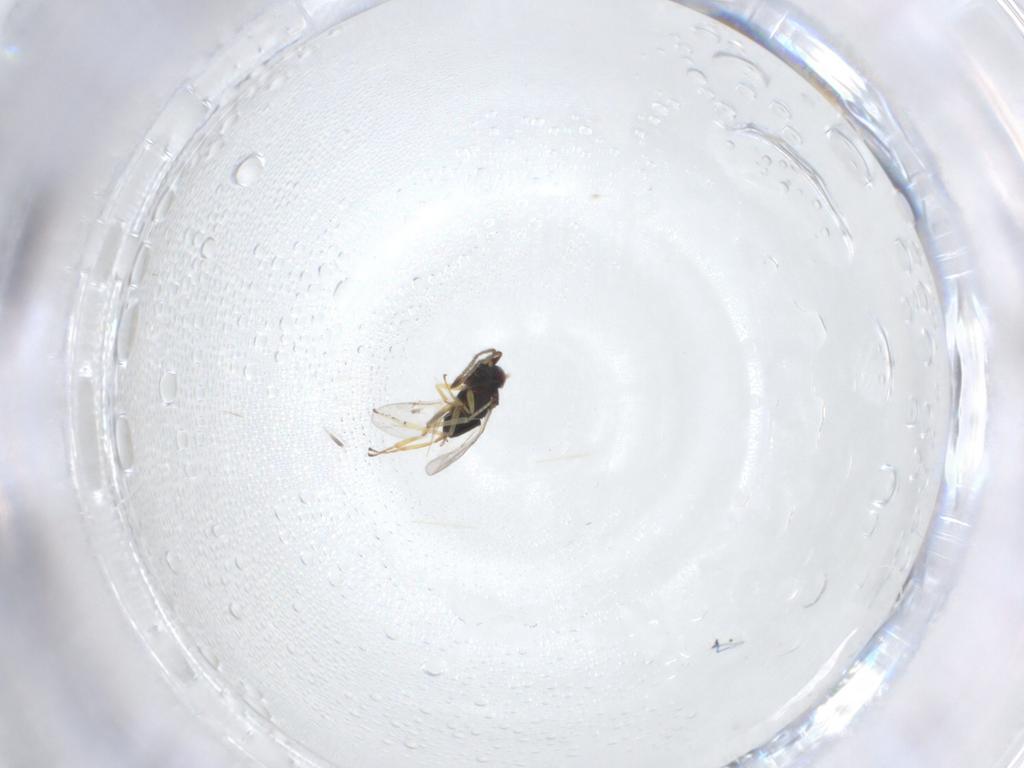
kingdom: Animalia
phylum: Arthropoda
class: Insecta
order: Hymenoptera
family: Encyrtidae
